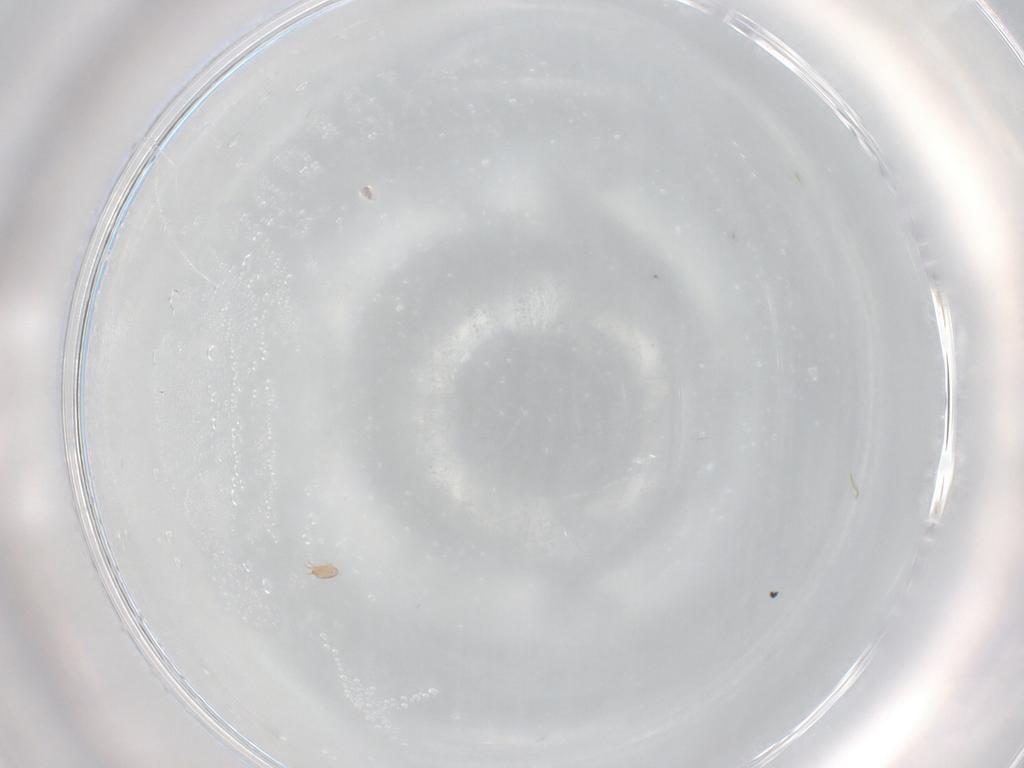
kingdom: Animalia
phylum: Arthropoda
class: Arachnida
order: Sarcoptiformes
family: Hemisarcoptidae
